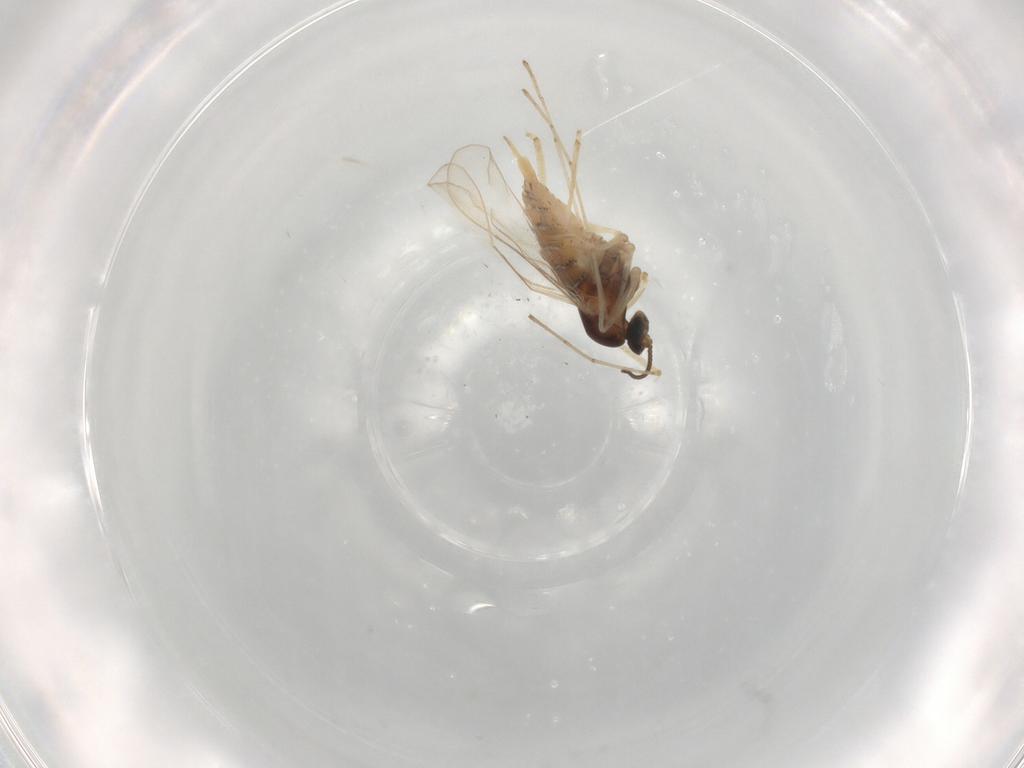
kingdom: Animalia
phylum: Arthropoda
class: Insecta
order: Diptera
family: Cecidomyiidae
